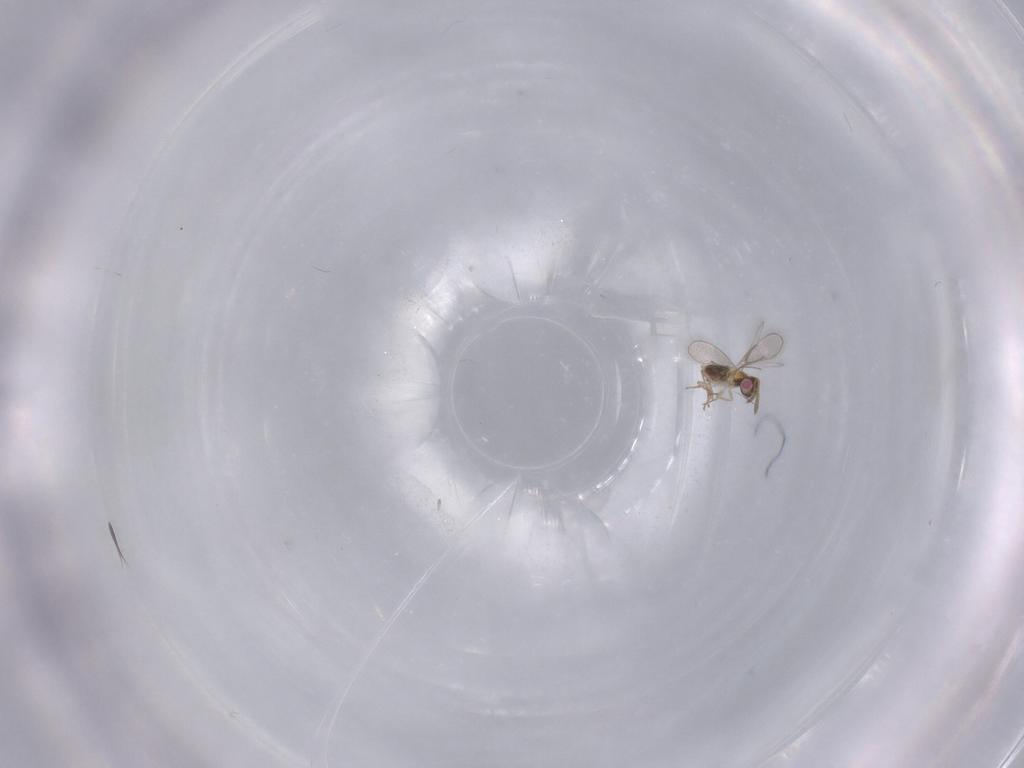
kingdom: Animalia
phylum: Arthropoda
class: Insecta
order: Hymenoptera
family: Aphelinidae
